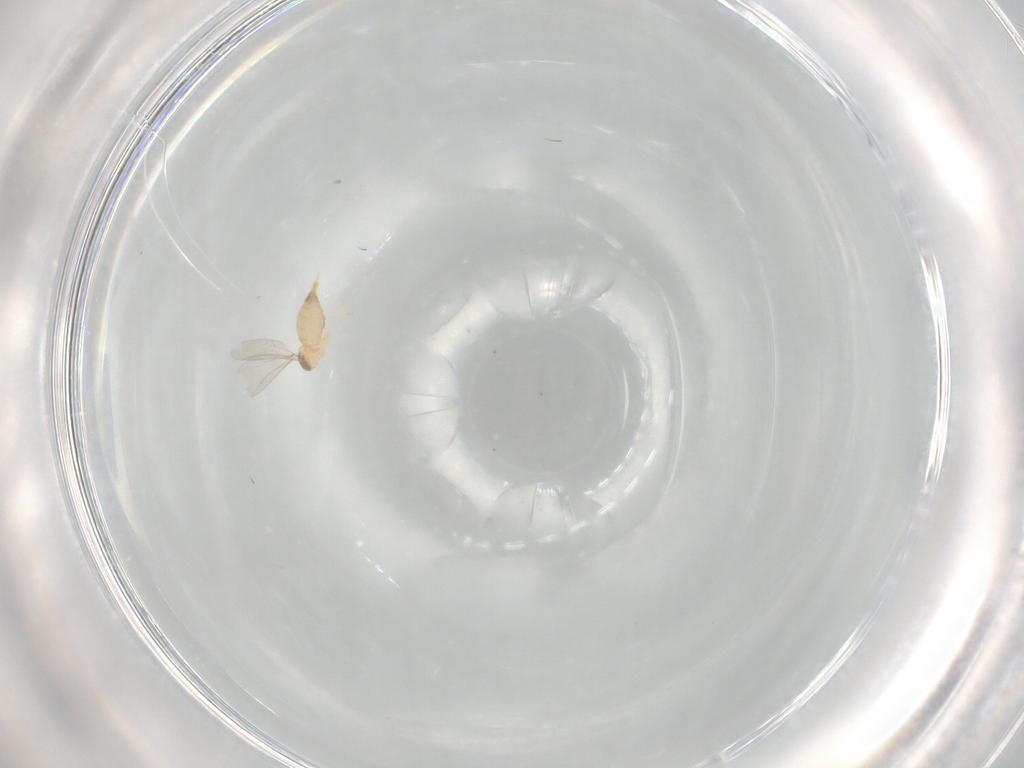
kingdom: Animalia
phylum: Arthropoda
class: Insecta
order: Diptera
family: Cecidomyiidae
